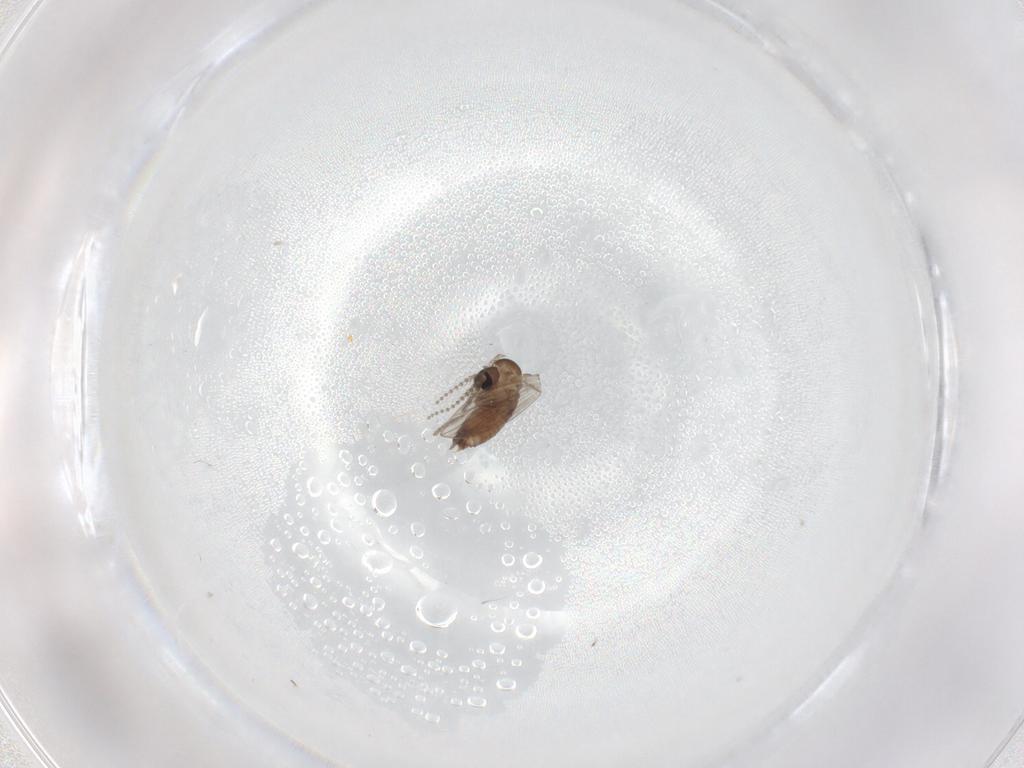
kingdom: Animalia
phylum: Arthropoda
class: Insecta
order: Diptera
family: Psychodidae
